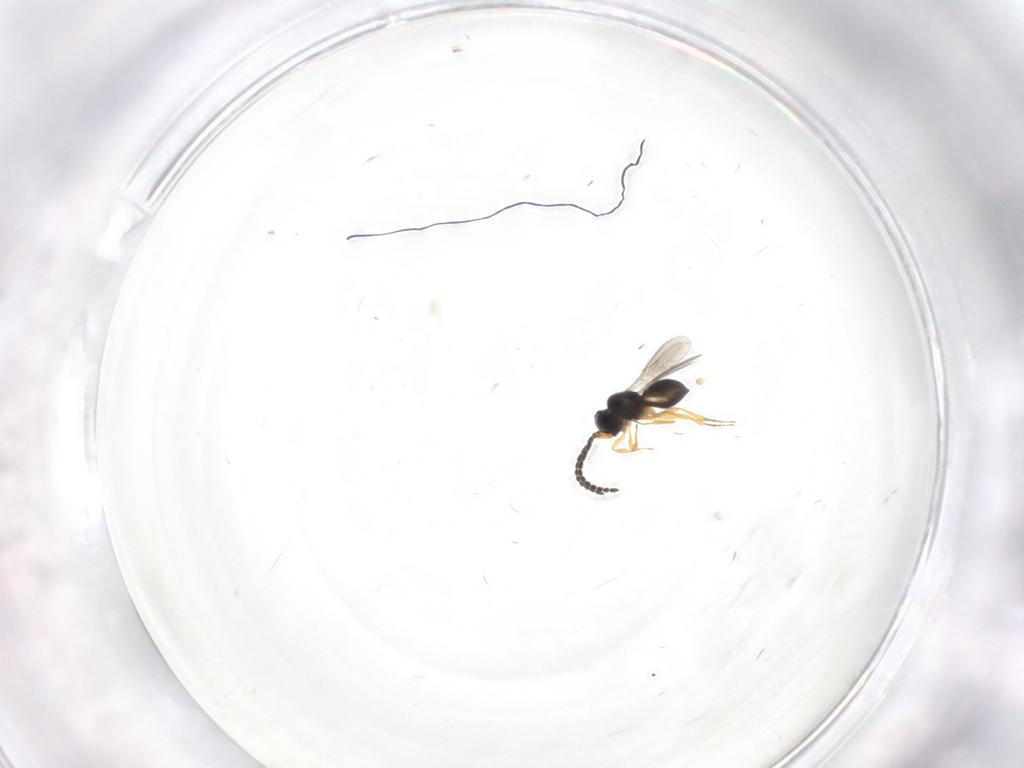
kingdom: Animalia
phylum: Arthropoda
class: Insecta
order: Hymenoptera
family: Scelionidae
